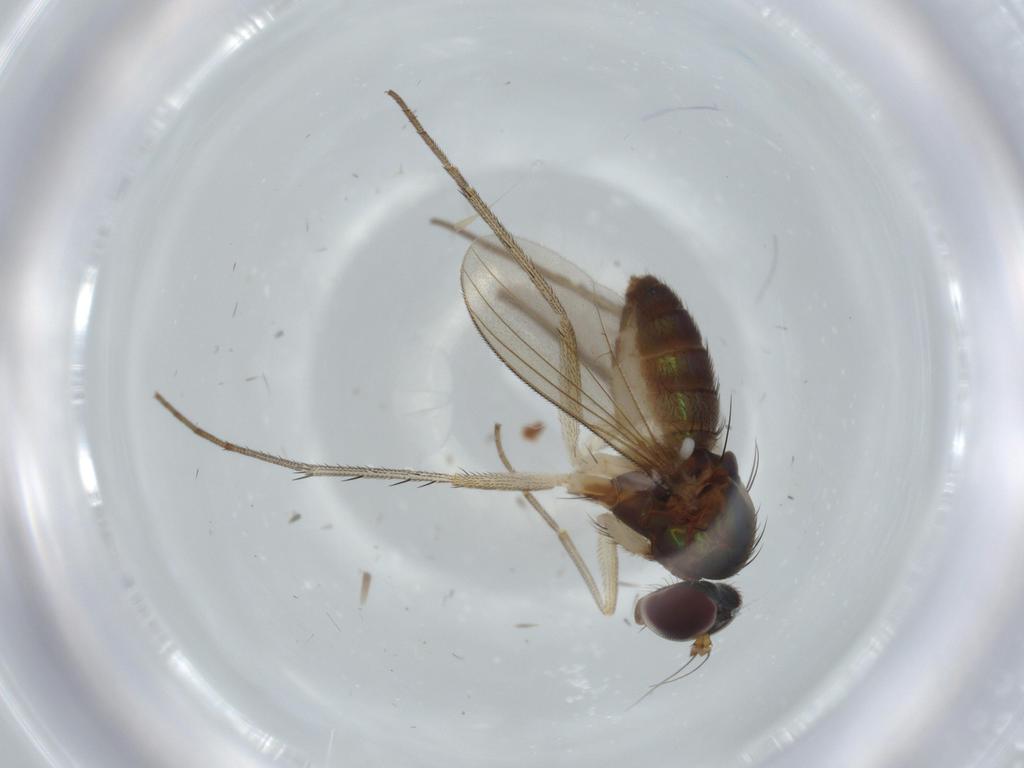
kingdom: Animalia
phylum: Arthropoda
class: Insecta
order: Diptera
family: Dolichopodidae
